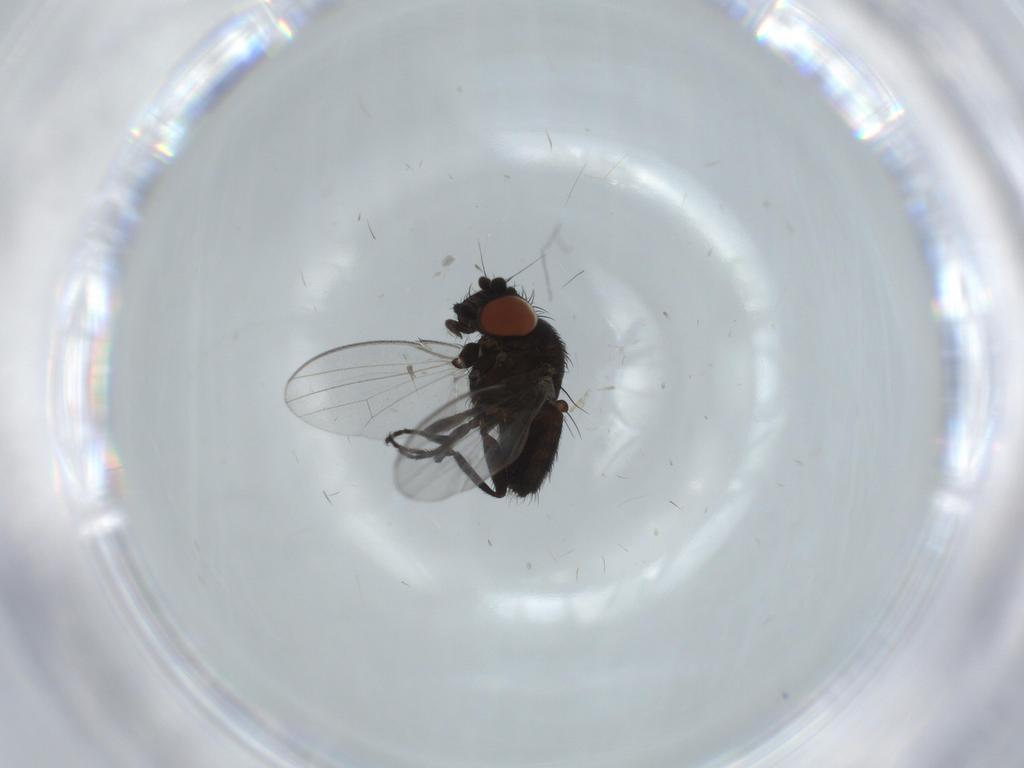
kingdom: Animalia
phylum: Arthropoda
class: Insecta
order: Diptera
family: Milichiidae
